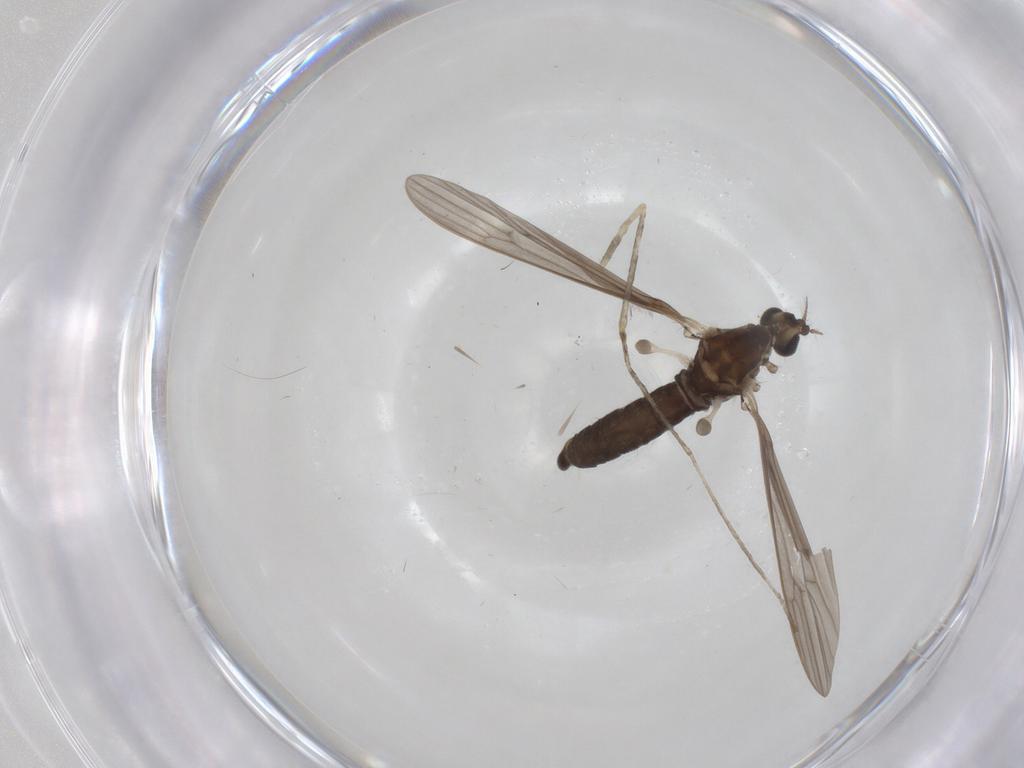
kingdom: Animalia
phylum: Arthropoda
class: Insecta
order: Diptera
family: Limoniidae
